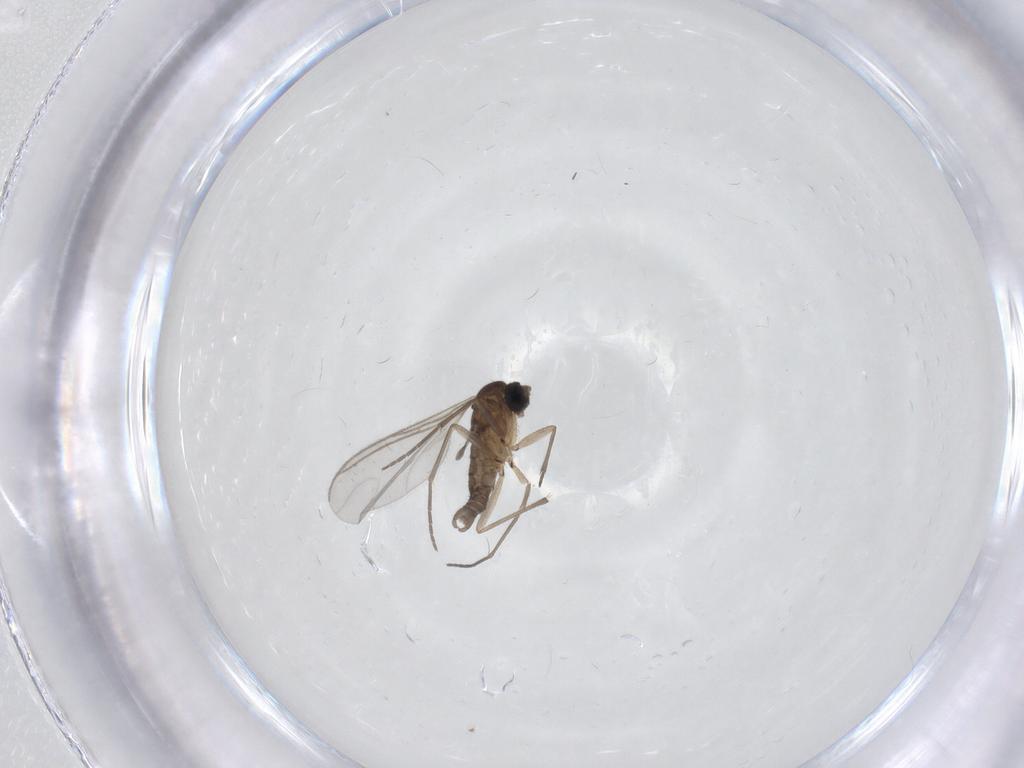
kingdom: Animalia
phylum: Arthropoda
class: Insecta
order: Diptera
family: Sciaridae
